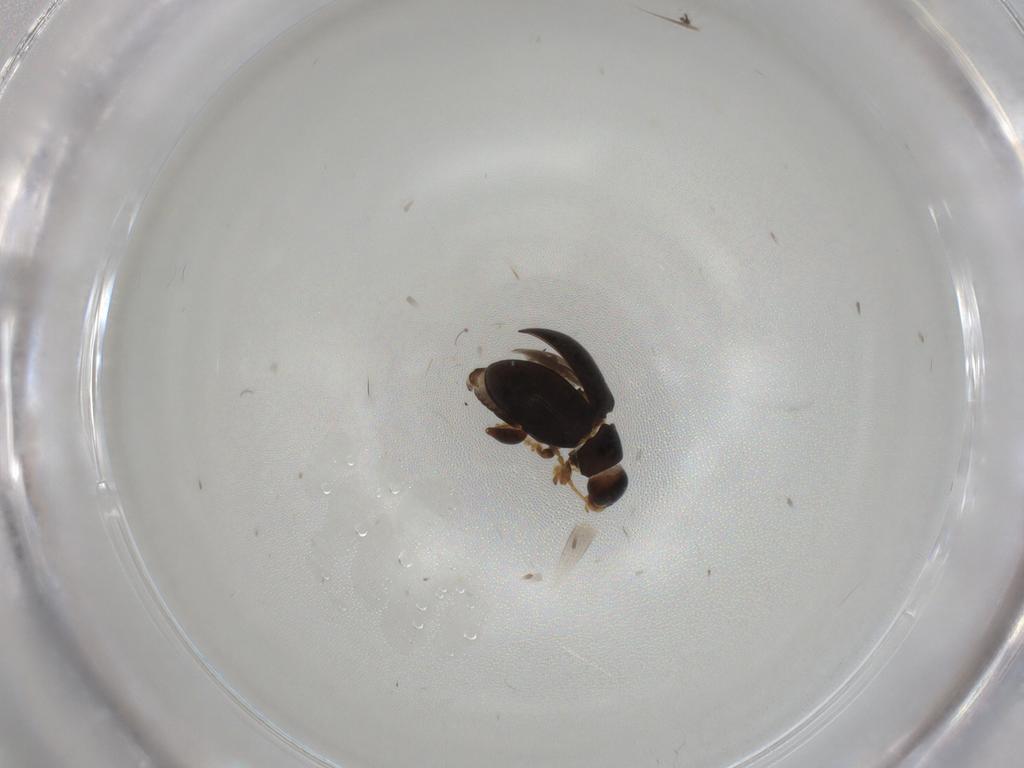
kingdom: Animalia
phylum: Arthropoda
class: Insecta
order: Coleoptera
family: Chrysomelidae
